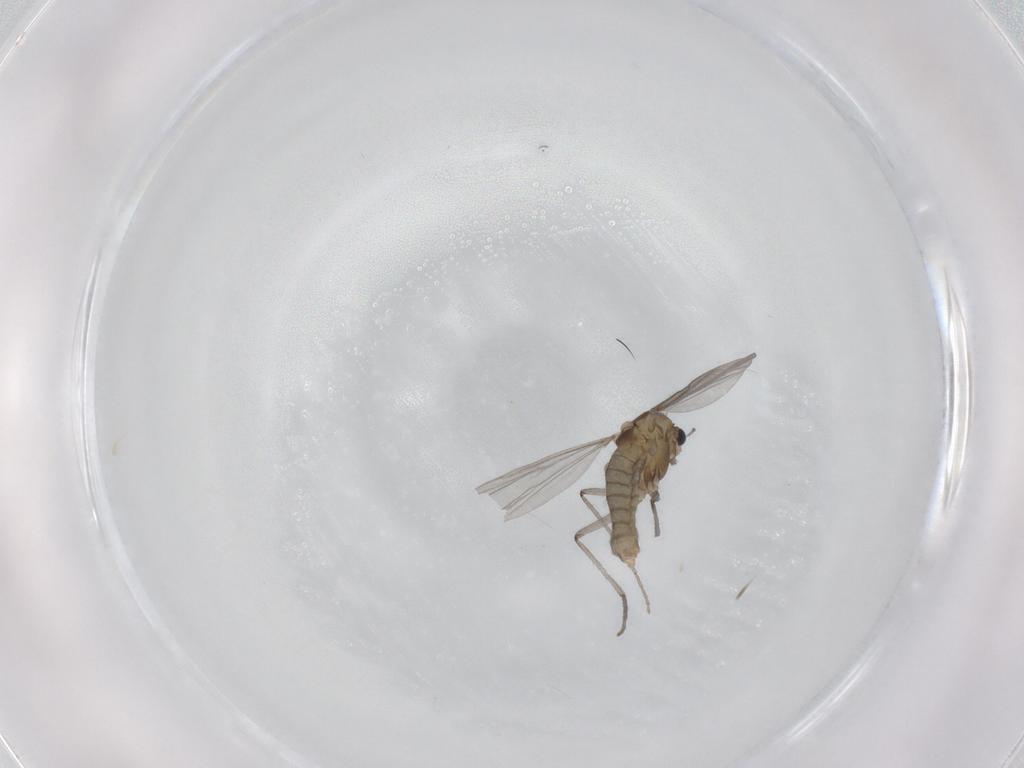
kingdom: Animalia
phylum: Arthropoda
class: Insecta
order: Diptera
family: Chironomidae
